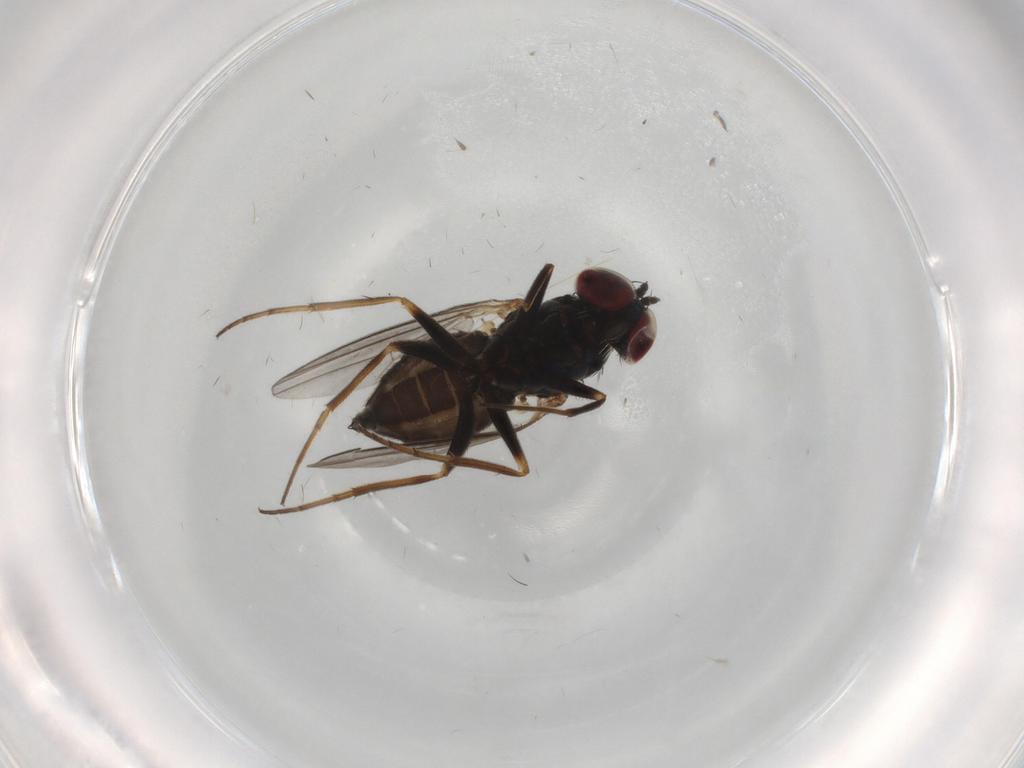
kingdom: Animalia
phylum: Arthropoda
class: Insecta
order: Diptera
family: Dolichopodidae
